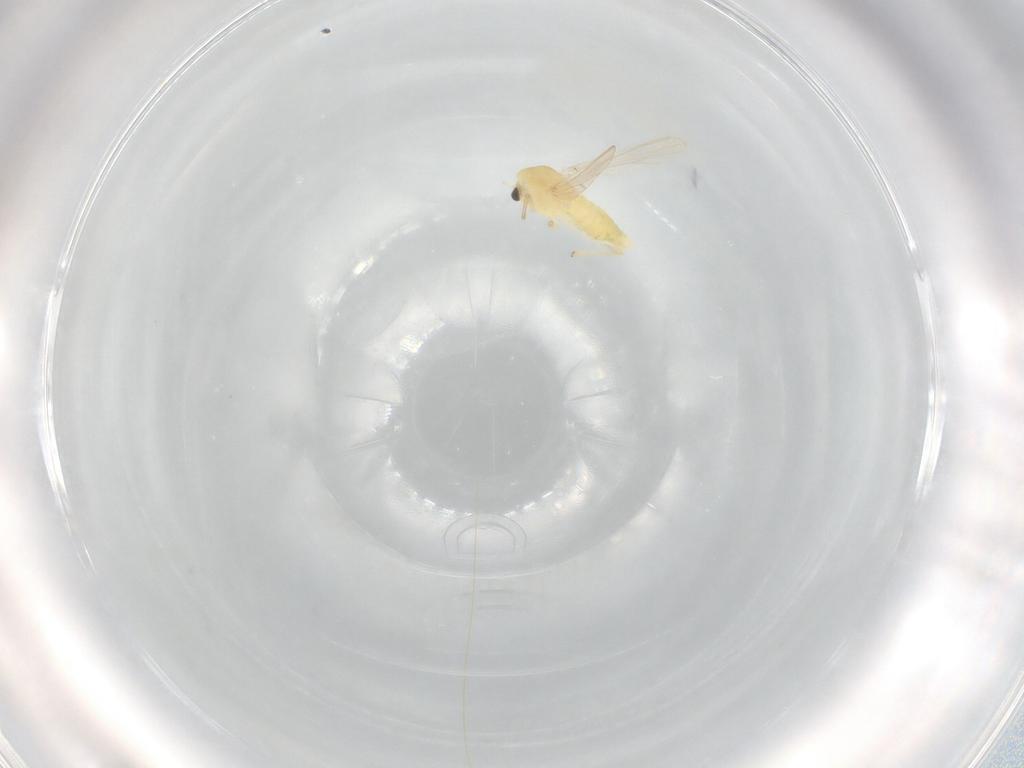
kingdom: Animalia
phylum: Arthropoda
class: Insecta
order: Diptera
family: Chironomidae
